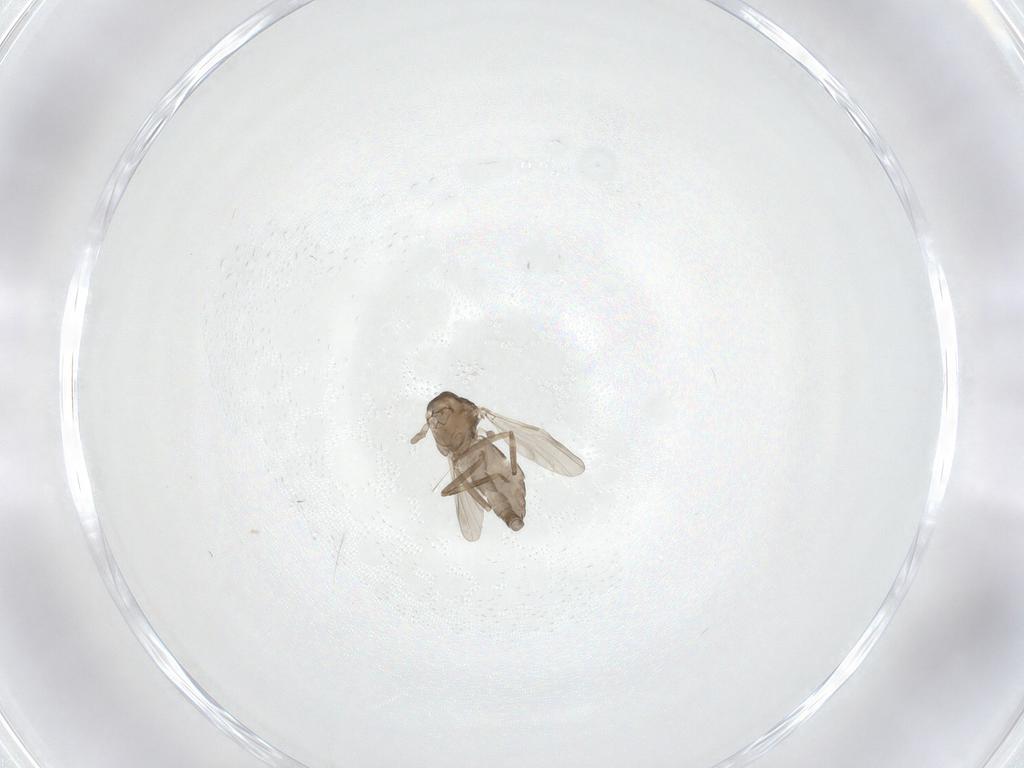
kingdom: Animalia
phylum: Arthropoda
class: Insecta
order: Diptera
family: Ceratopogonidae
